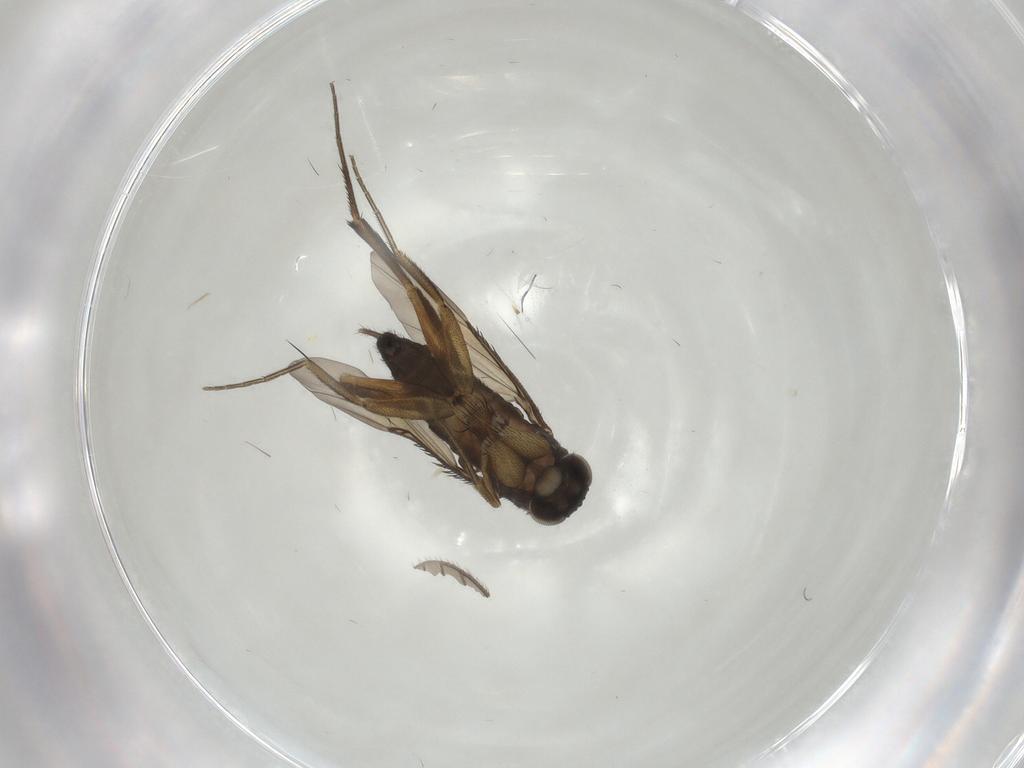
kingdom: Animalia
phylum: Arthropoda
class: Insecta
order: Diptera
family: Phoridae
